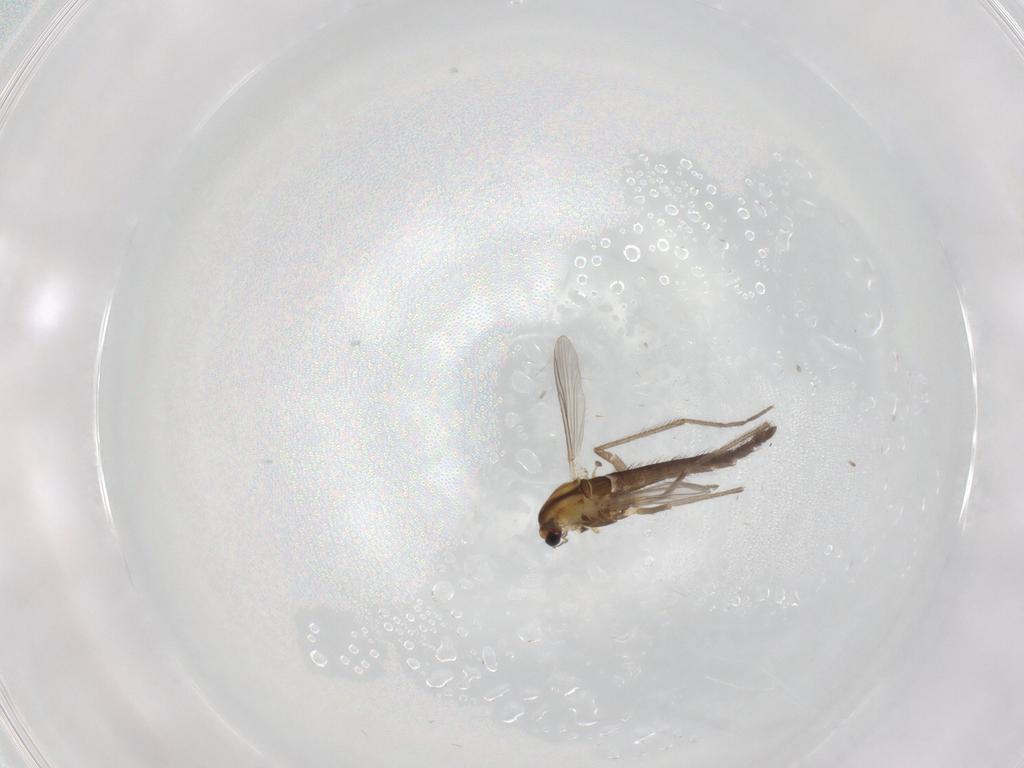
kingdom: Animalia
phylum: Arthropoda
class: Insecta
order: Diptera
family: Chironomidae
